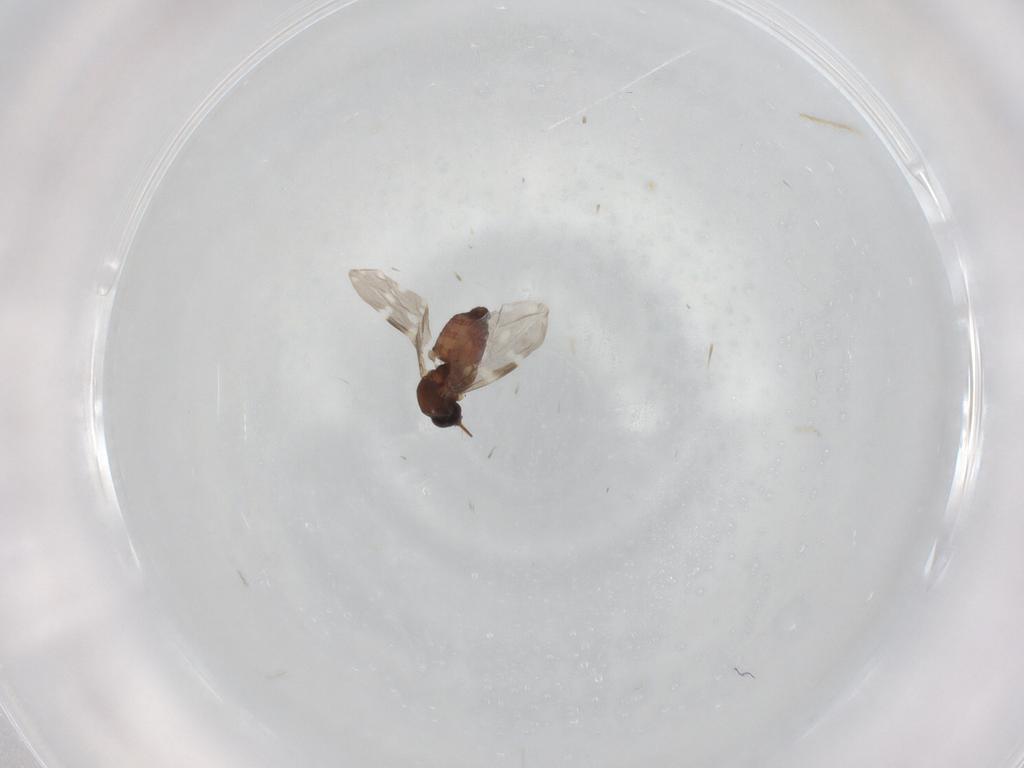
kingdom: Animalia
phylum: Arthropoda
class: Insecta
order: Diptera
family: Ceratopogonidae
